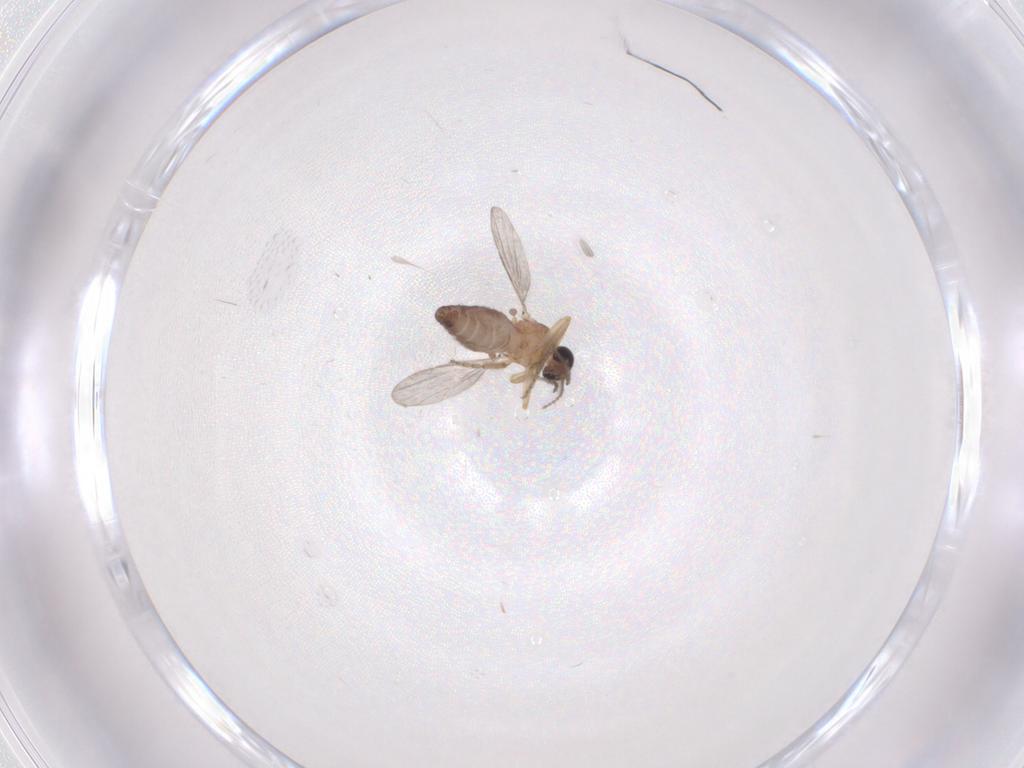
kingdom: Animalia
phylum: Arthropoda
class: Insecta
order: Diptera
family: Ceratopogonidae
